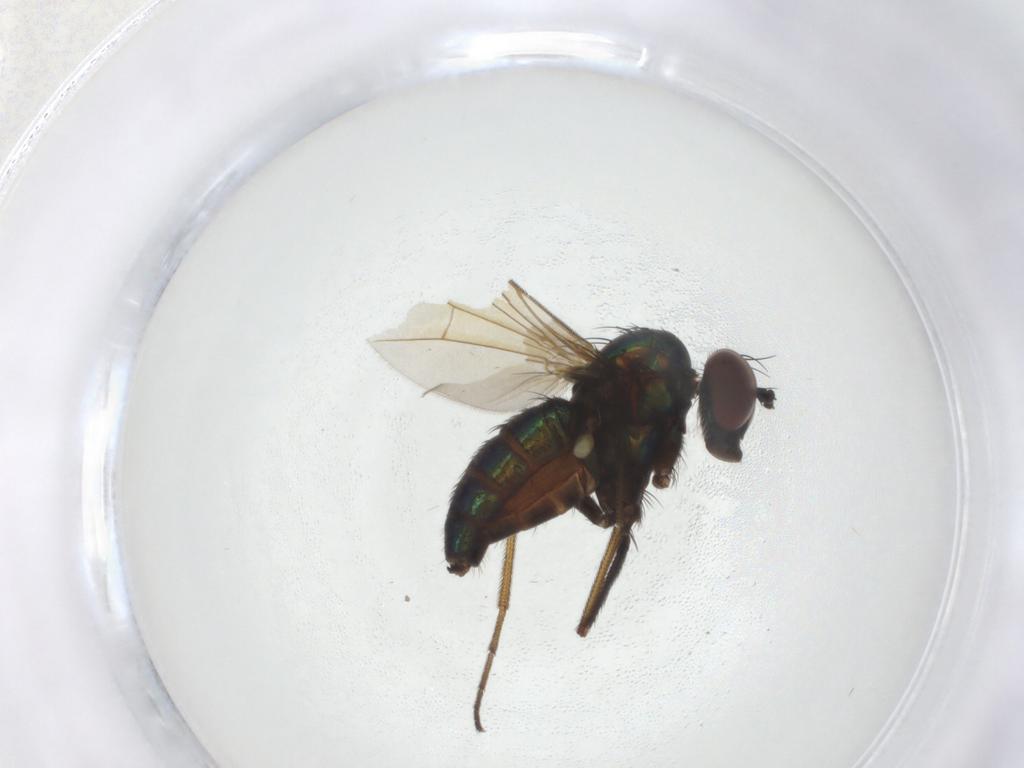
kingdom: Animalia
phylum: Arthropoda
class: Insecta
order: Diptera
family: Dolichopodidae
